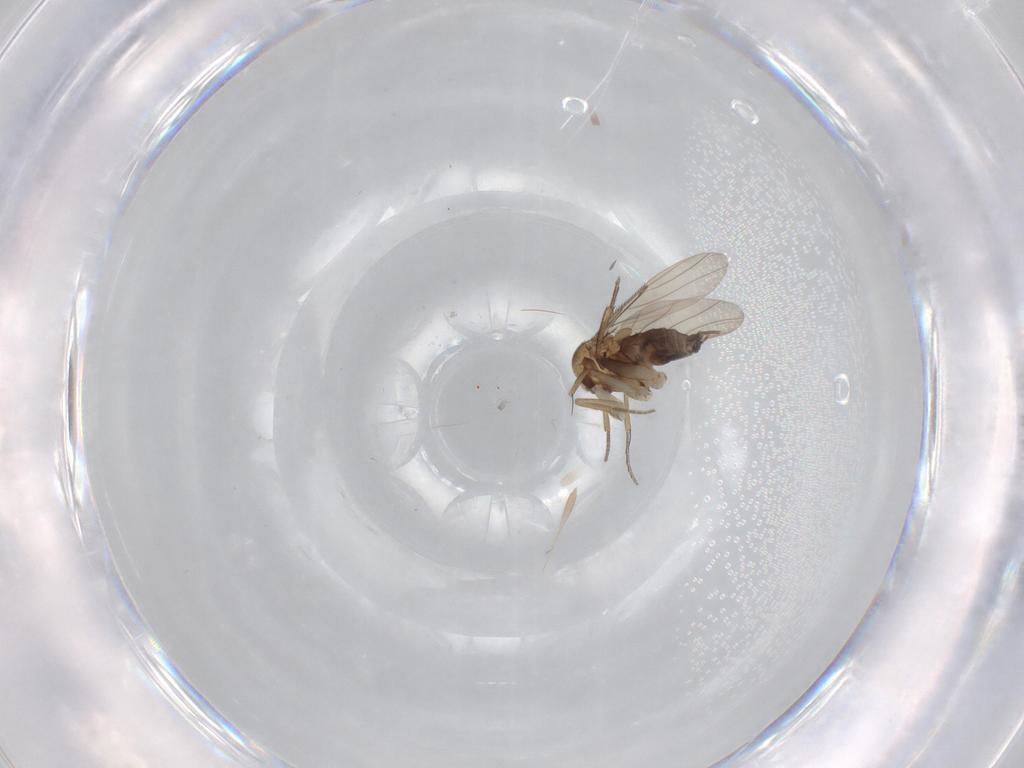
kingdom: Animalia
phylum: Arthropoda
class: Insecta
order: Diptera
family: Phoridae
